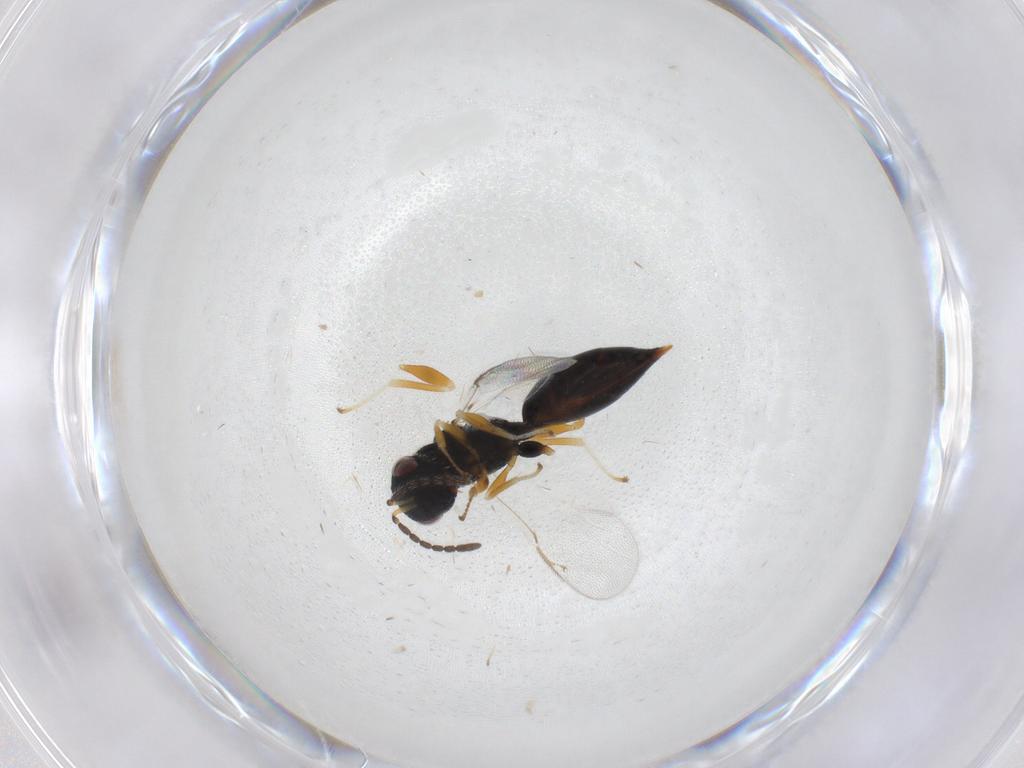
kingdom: Animalia
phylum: Arthropoda
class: Insecta
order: Hymenoptera
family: Eurytomidae
